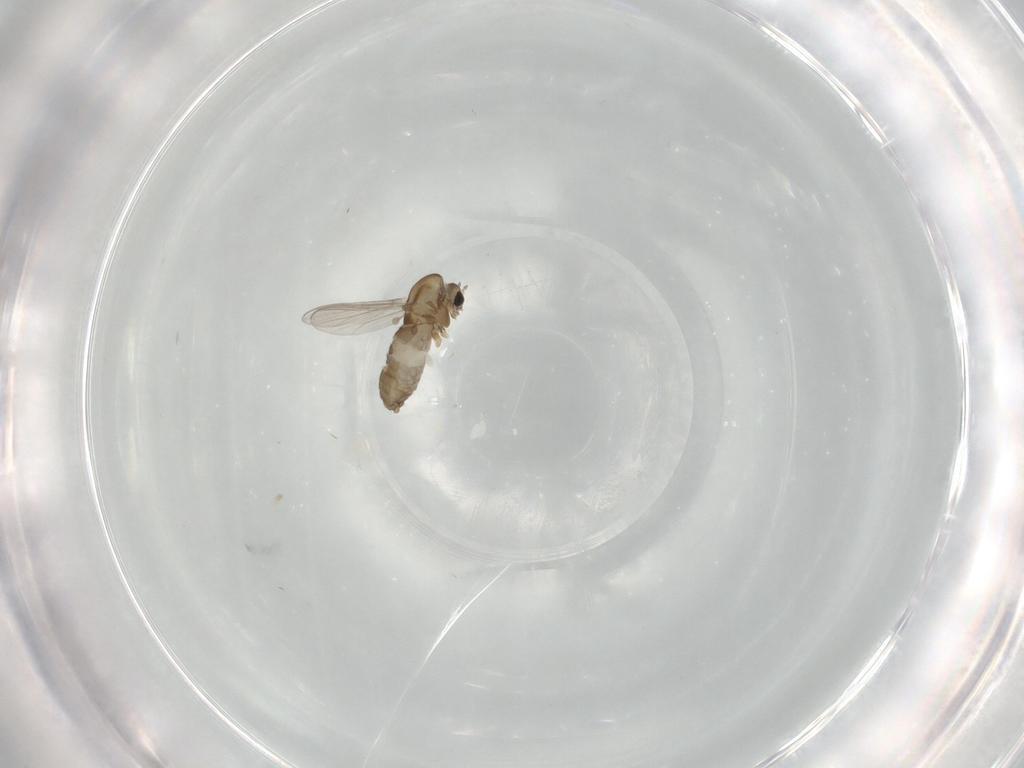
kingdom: Animalia
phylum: Arthropoda
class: Insecta
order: Diptera
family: Chironomidae
